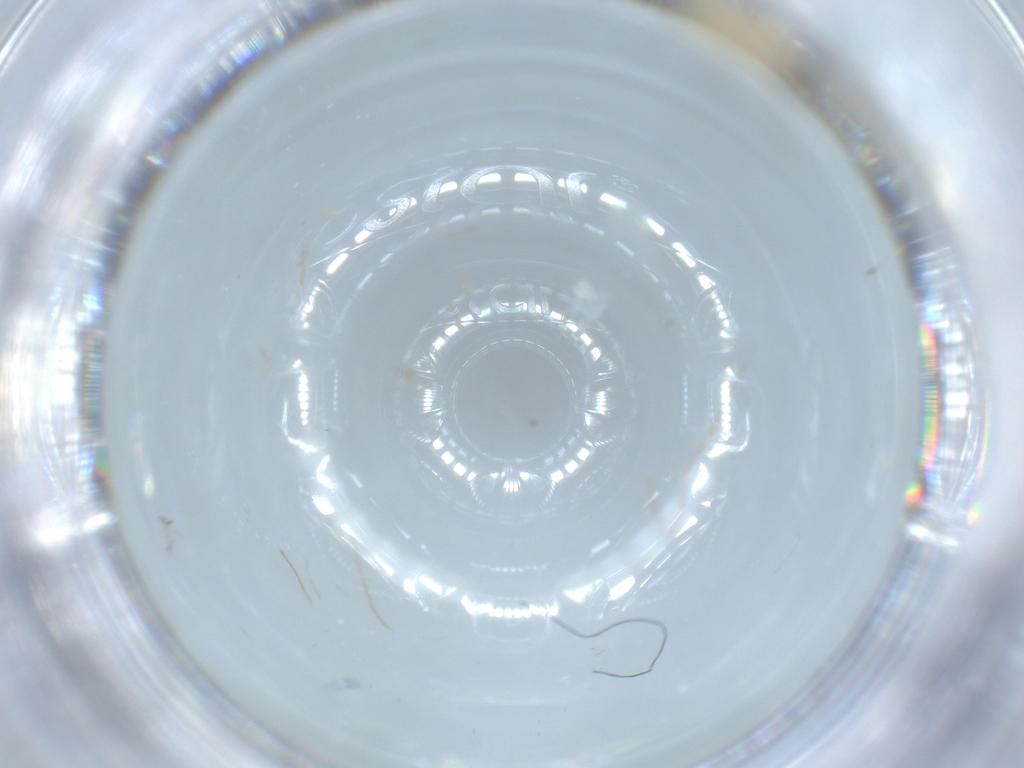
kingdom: Animalia
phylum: Arthropoda
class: Insecta
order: Diptera
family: Cecidomyiidae
